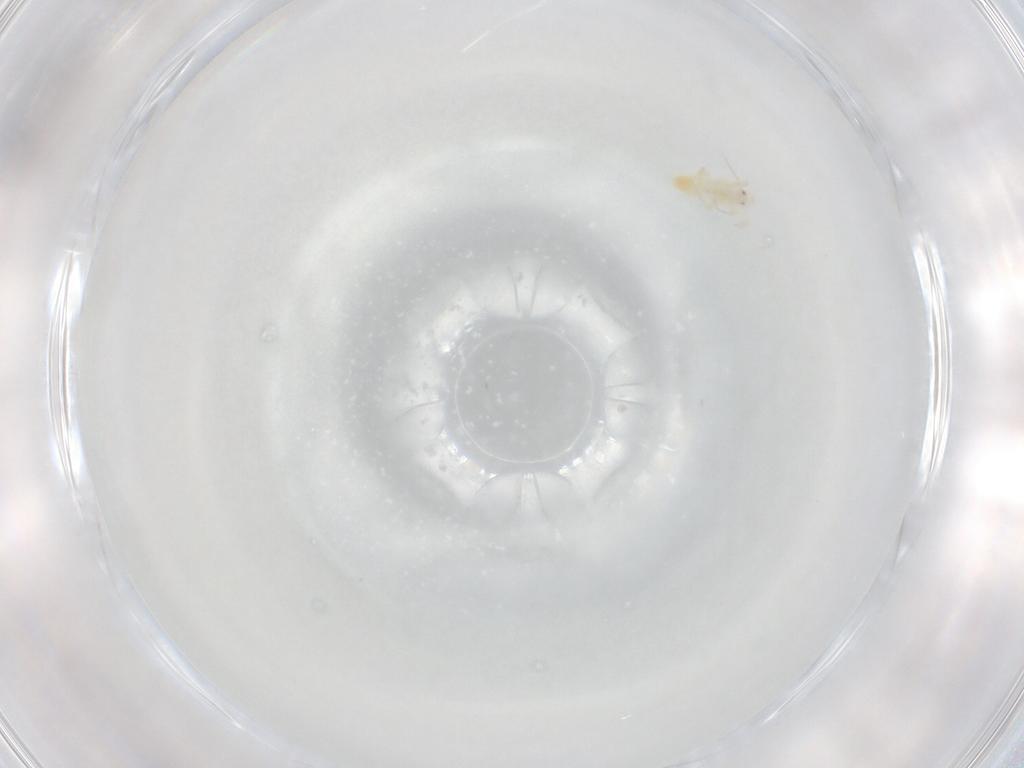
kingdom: Animalia
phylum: Arthropoda
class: Insecta
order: Hemiptera
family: Delphacidae
